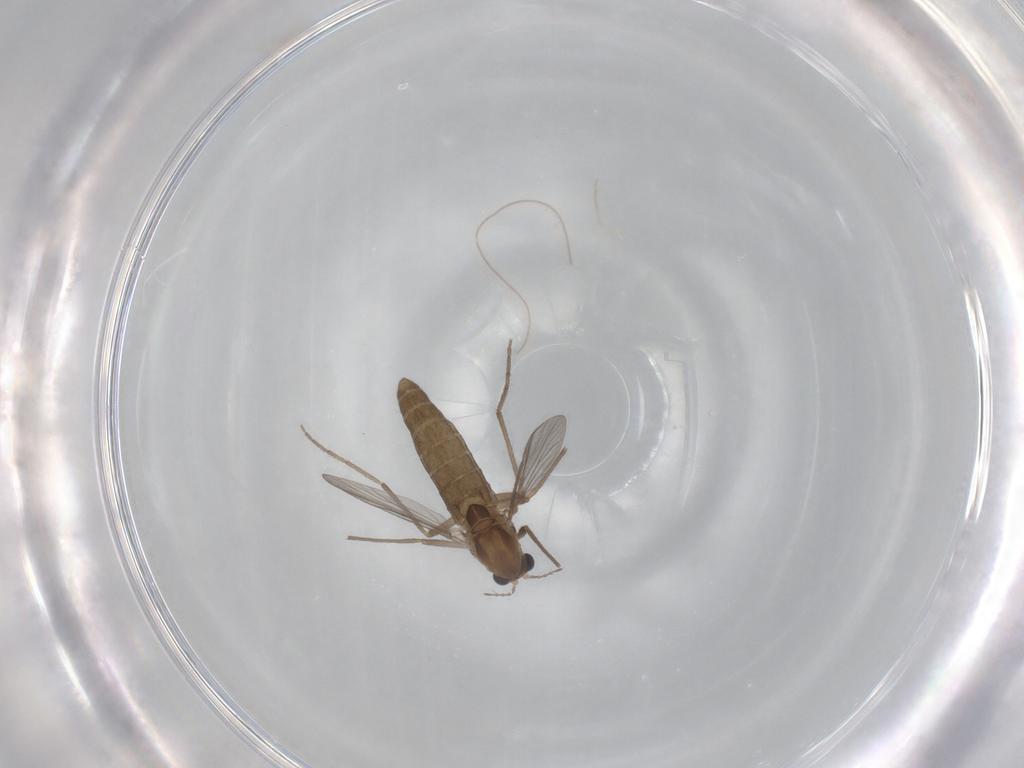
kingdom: Animalia
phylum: Arthropoda
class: Insecta
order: Diptera
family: Chironomidae
